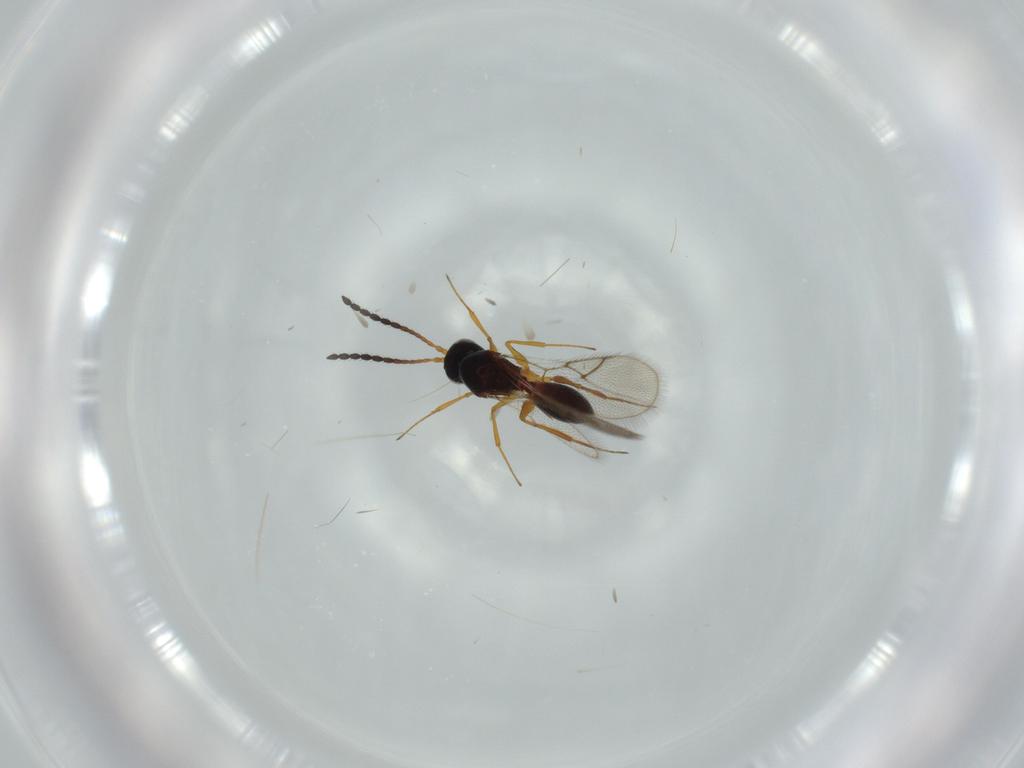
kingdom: Animalia
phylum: Arthropoda
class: Insecta
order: Hymenoptera
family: Figitidae
